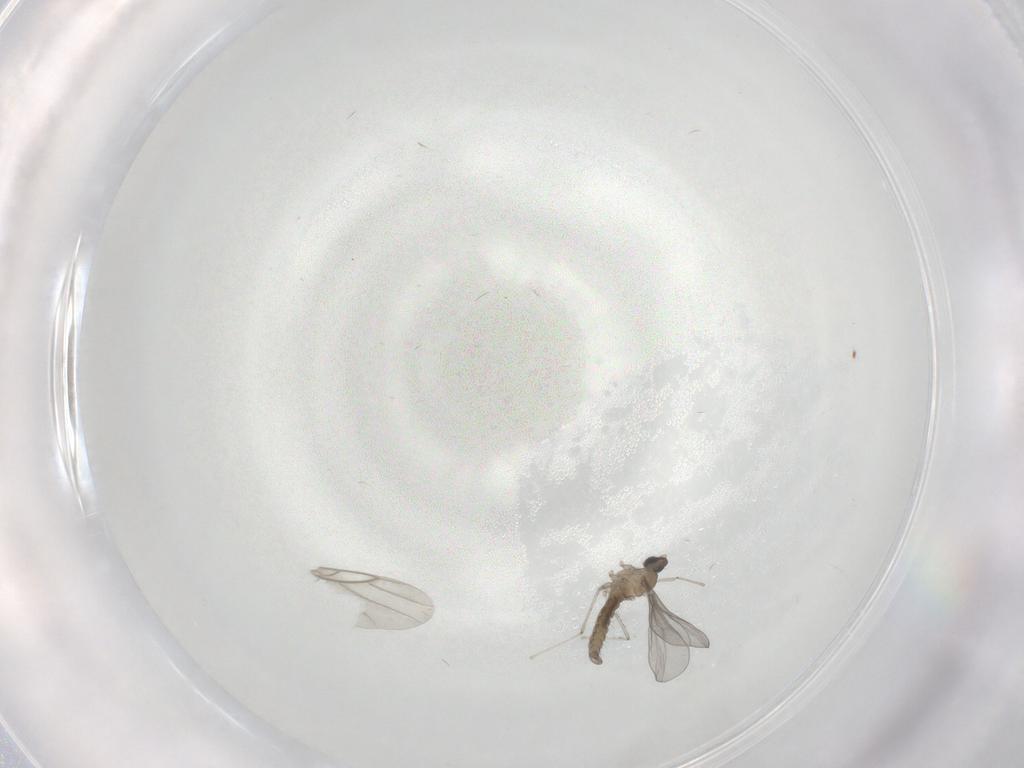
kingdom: Animalia
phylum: Arthropoda
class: Insecta
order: Diptera
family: Cecidomyiidae
